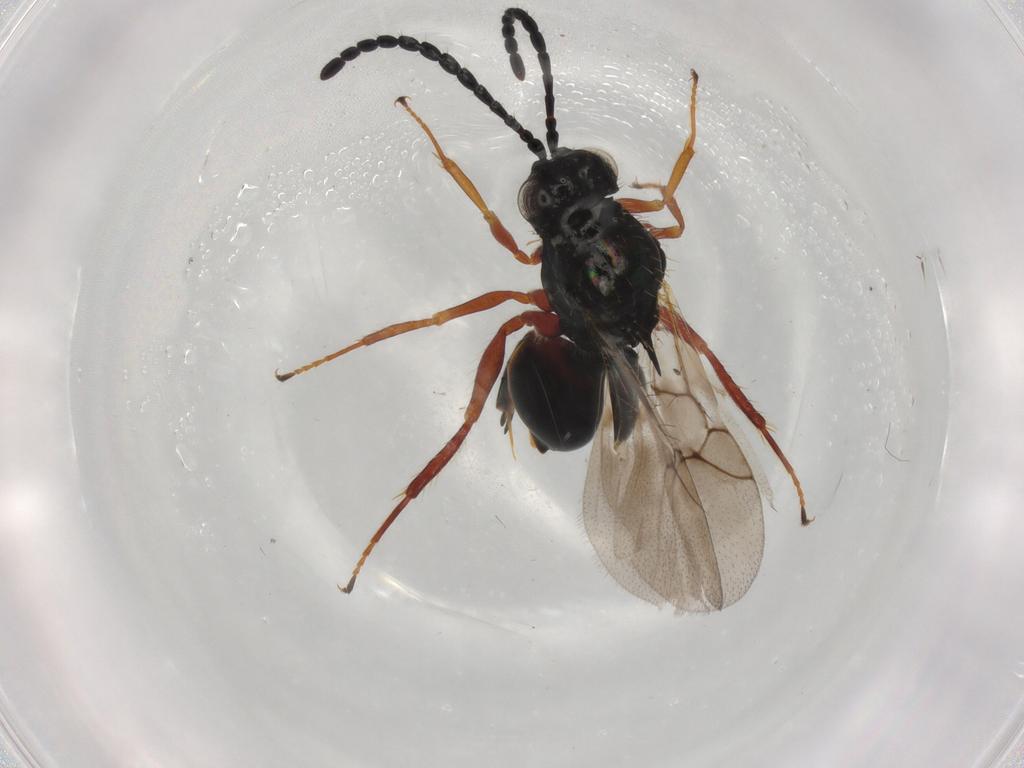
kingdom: Animalia
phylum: Arthropoda
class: Insecta
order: Hymenoptera
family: Figitidae
